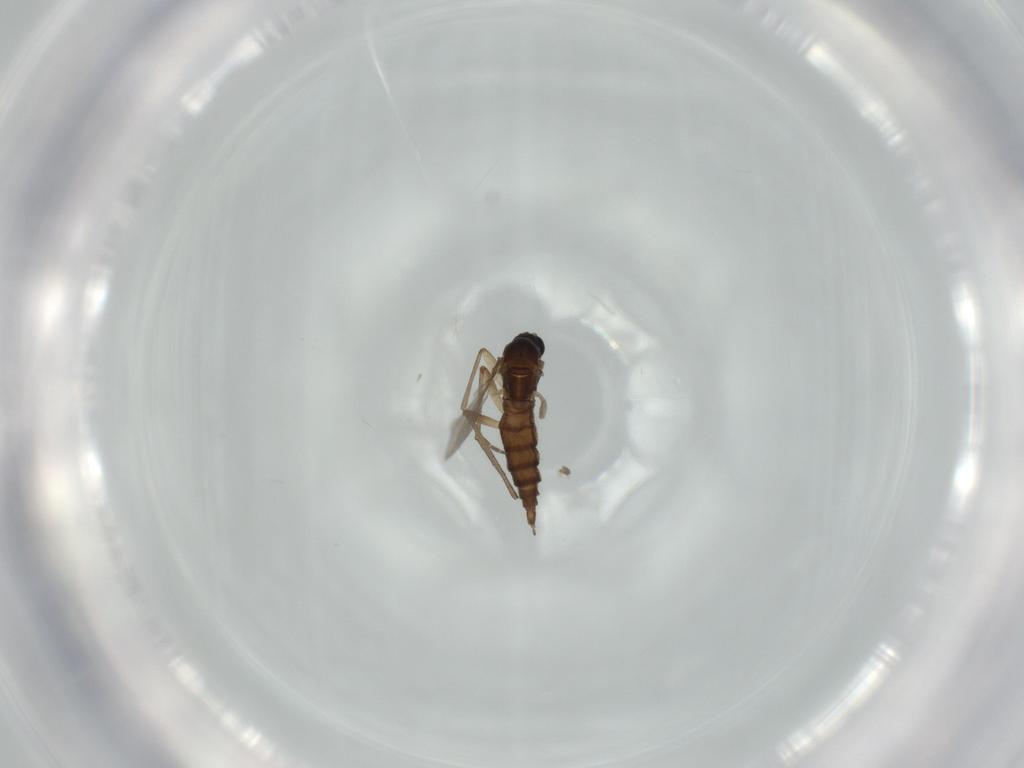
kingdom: Animalia
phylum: Arthropoda
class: Insecta
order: Diptera
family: Sciaridae
